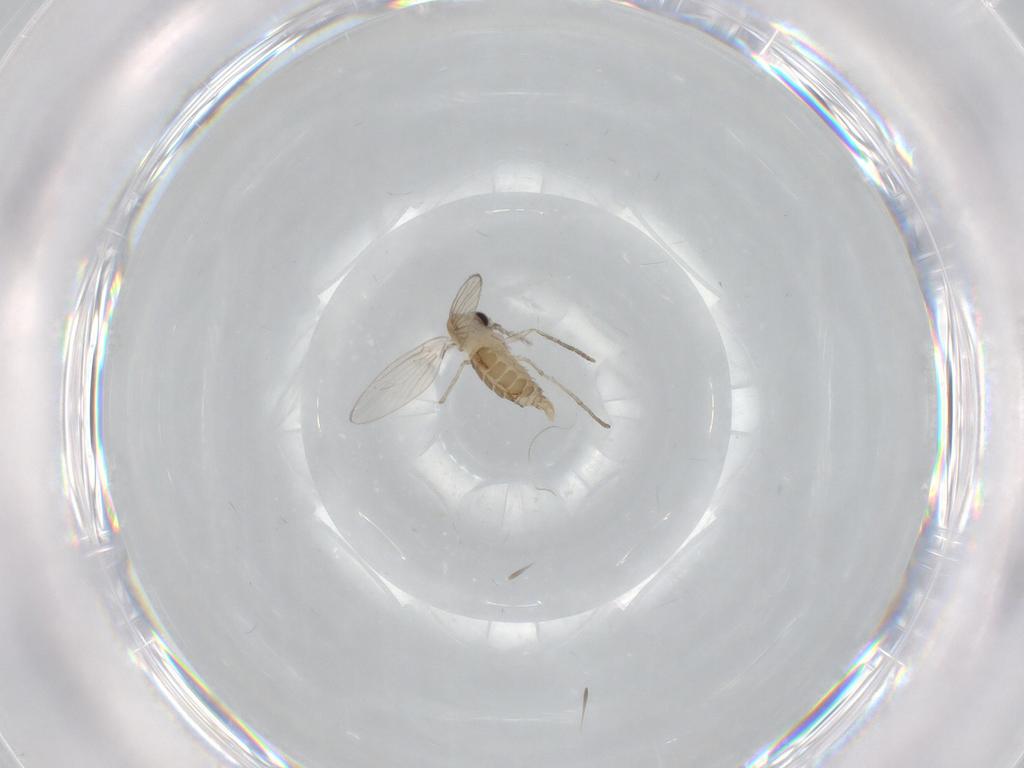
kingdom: Animalia
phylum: Arthropoda
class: Insecta
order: Diptera
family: Psychodidae
